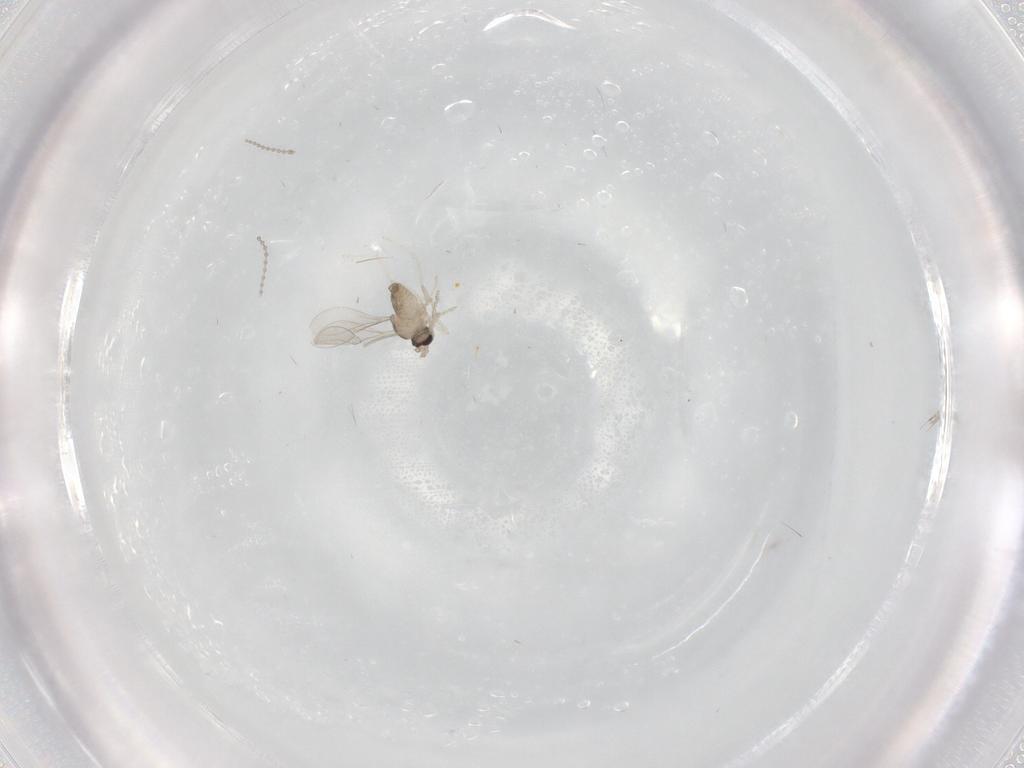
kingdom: Animalia
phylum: Arthropoda
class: Insecta
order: Diptera
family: Cecidomyiidae
